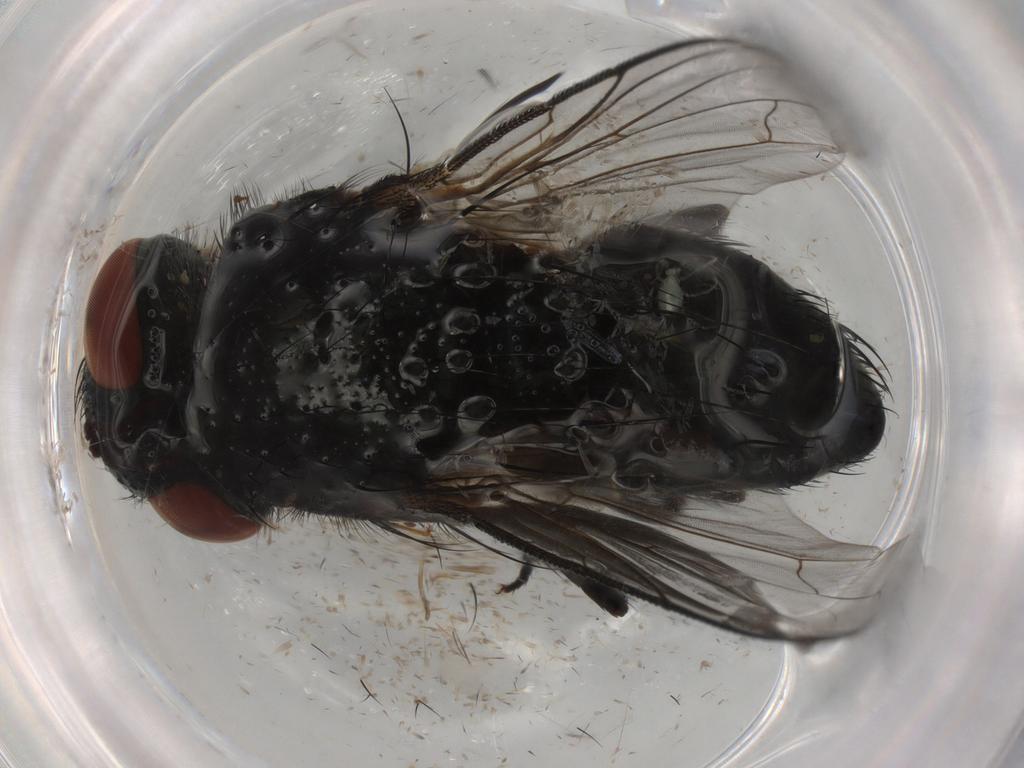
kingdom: Animalia
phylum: Arthropoda
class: Insecta
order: Diptera
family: Tachinidae
